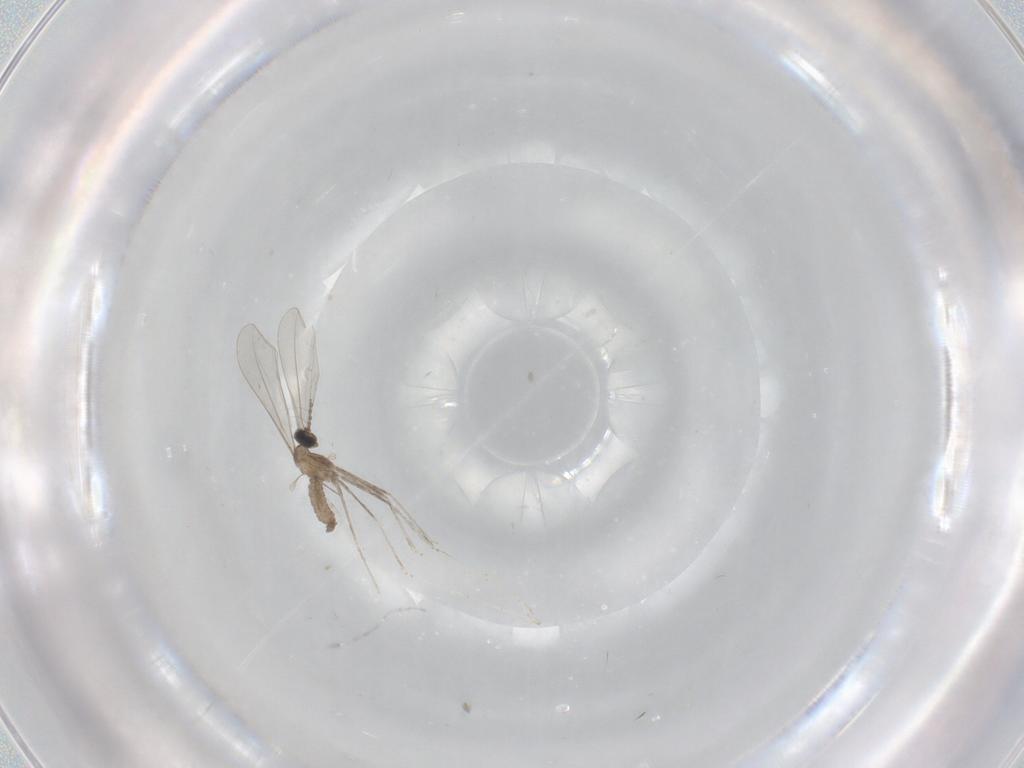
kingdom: Animalia
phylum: Arthropoda
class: Insecta
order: Diptera
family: Cecidomyiidae
